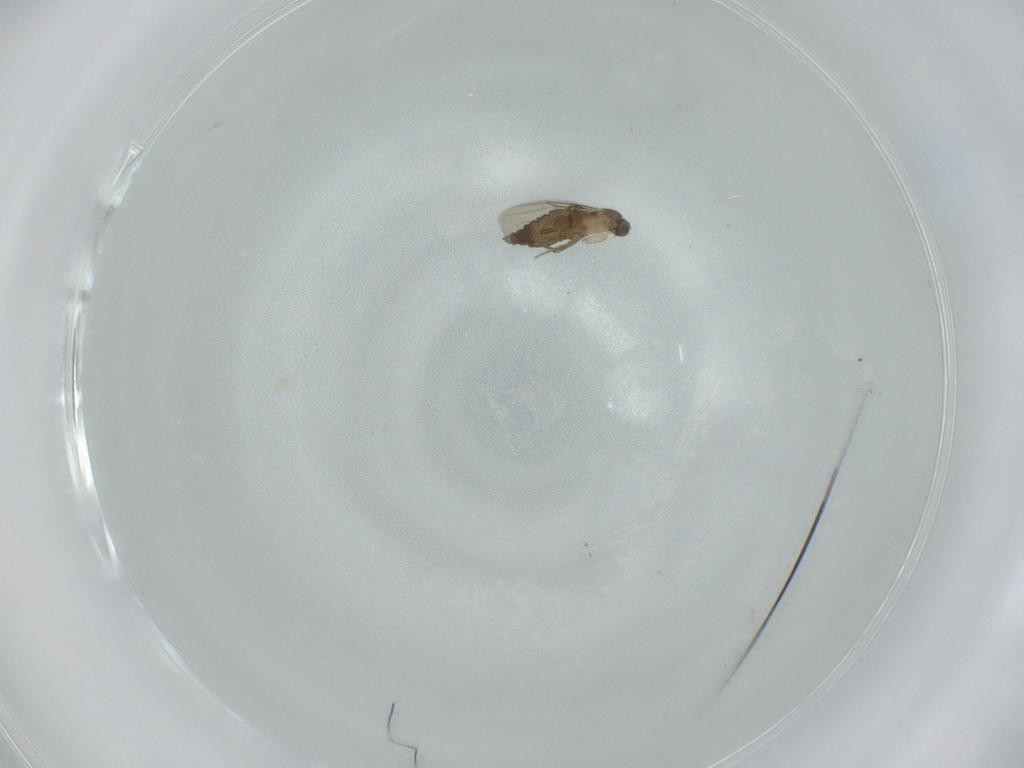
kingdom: Animalia
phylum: Arthropoda
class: Insecta
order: Diptera
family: Phoridae
